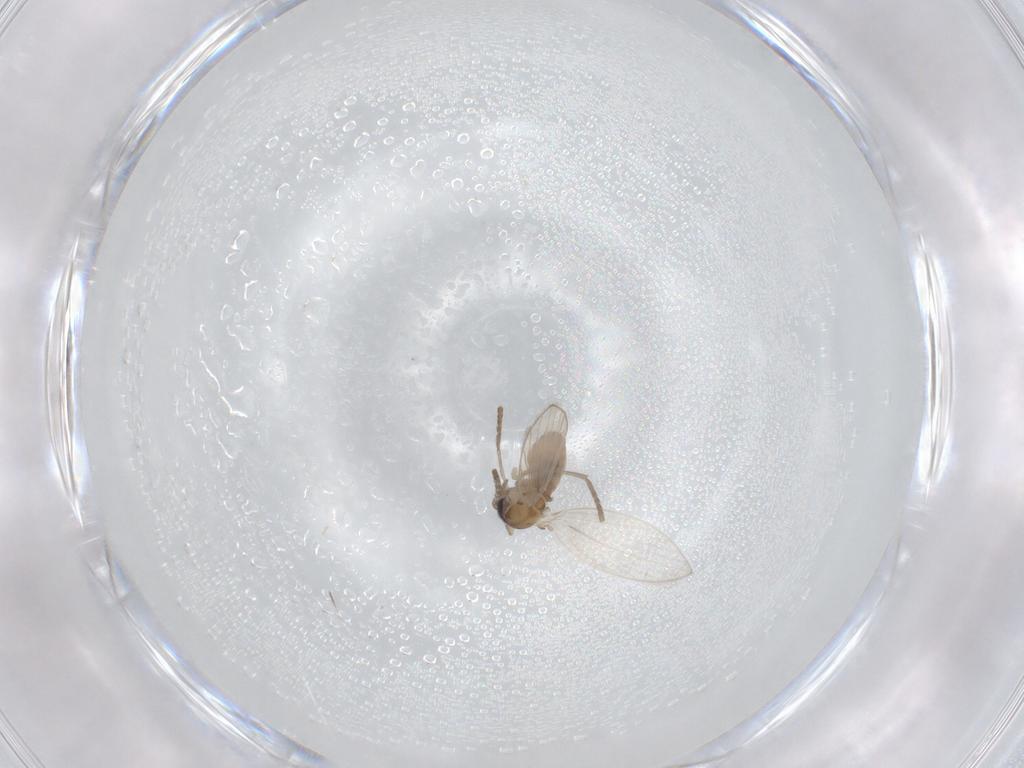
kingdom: Animalia
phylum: Arthropoda
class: Insecta
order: Diptera
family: Psychodidae
